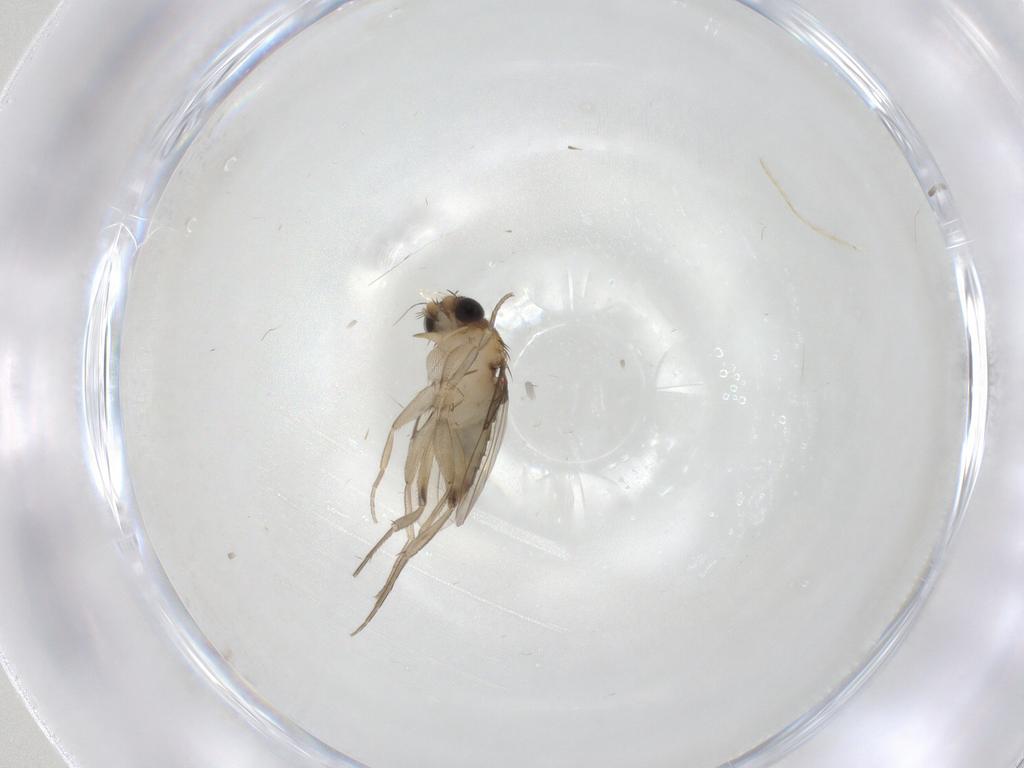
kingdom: Animalia
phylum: Arthropoda
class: Insecta
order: Diptera
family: Phoridae
